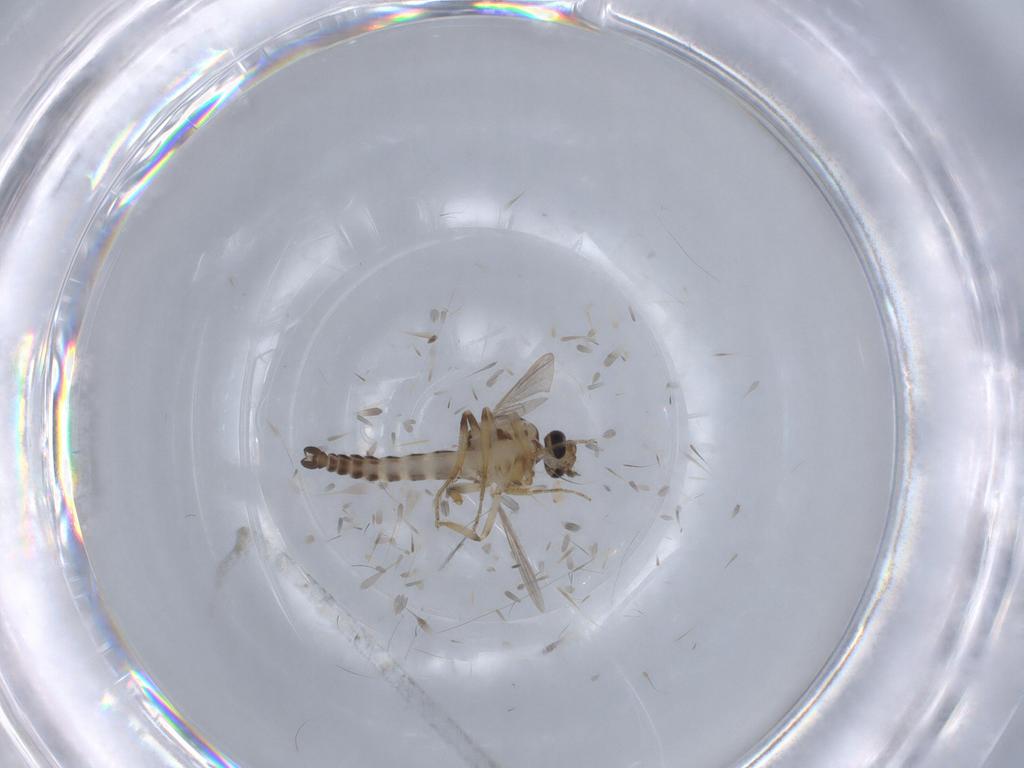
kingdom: Animalia
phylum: Arthropoda
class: Insecta
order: Diptera
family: Ceratopogonidae
